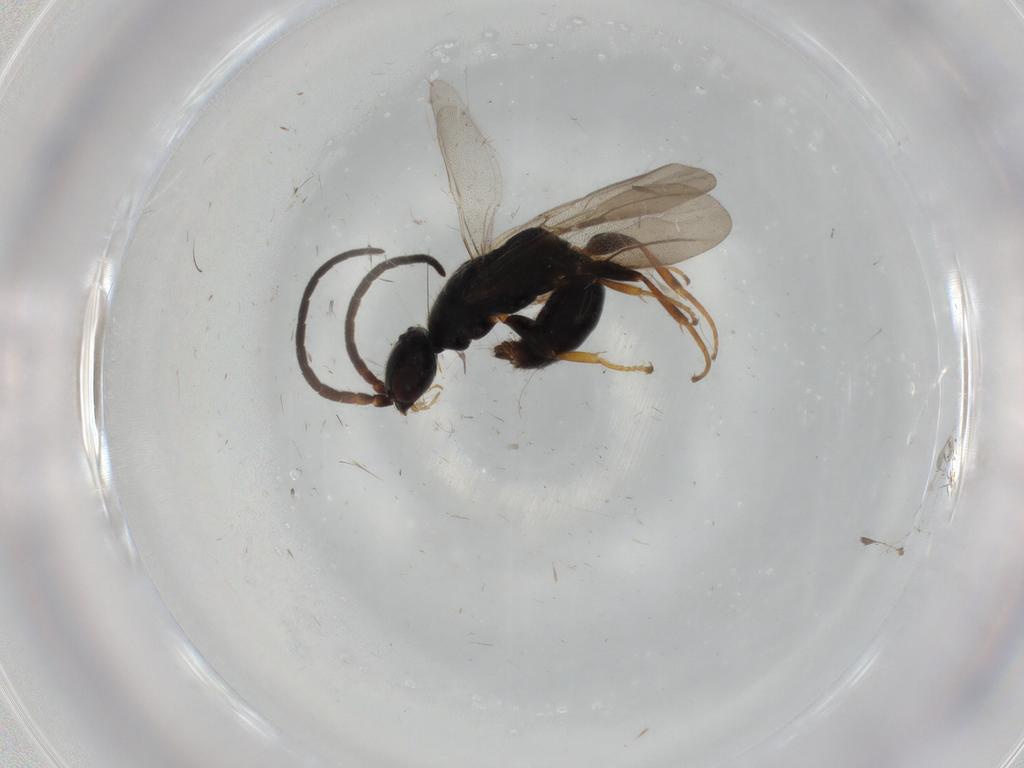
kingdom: Animalia
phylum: Arthropoda
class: Insecta
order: Hymenoptera
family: Bethylidae
